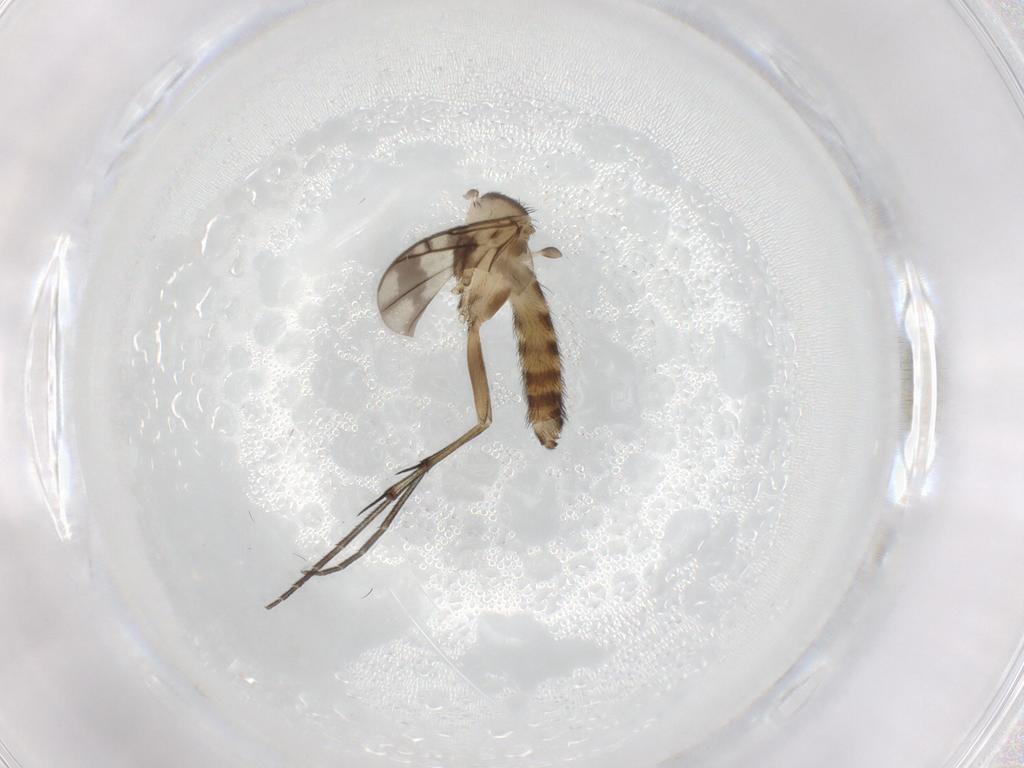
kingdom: Animalia
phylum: Arthropoda
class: Insecta
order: Diptera
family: Keroplatidae
